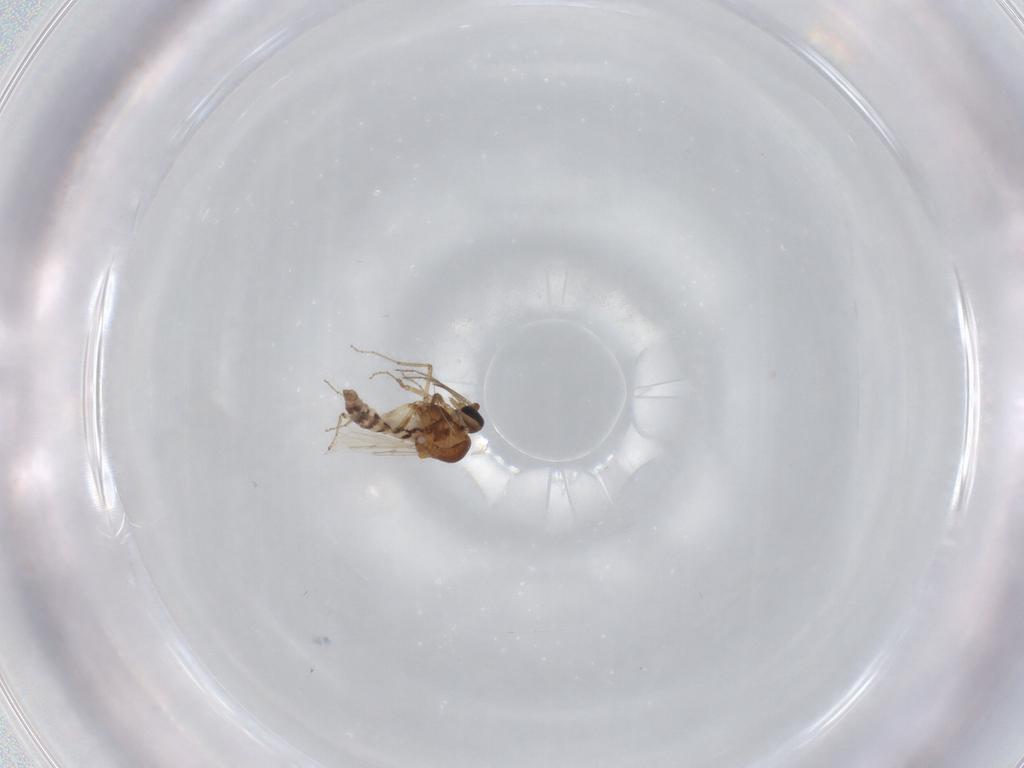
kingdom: Animalia
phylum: Arthropoda
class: Insecta
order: Diptera
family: Ceratopogonidae
